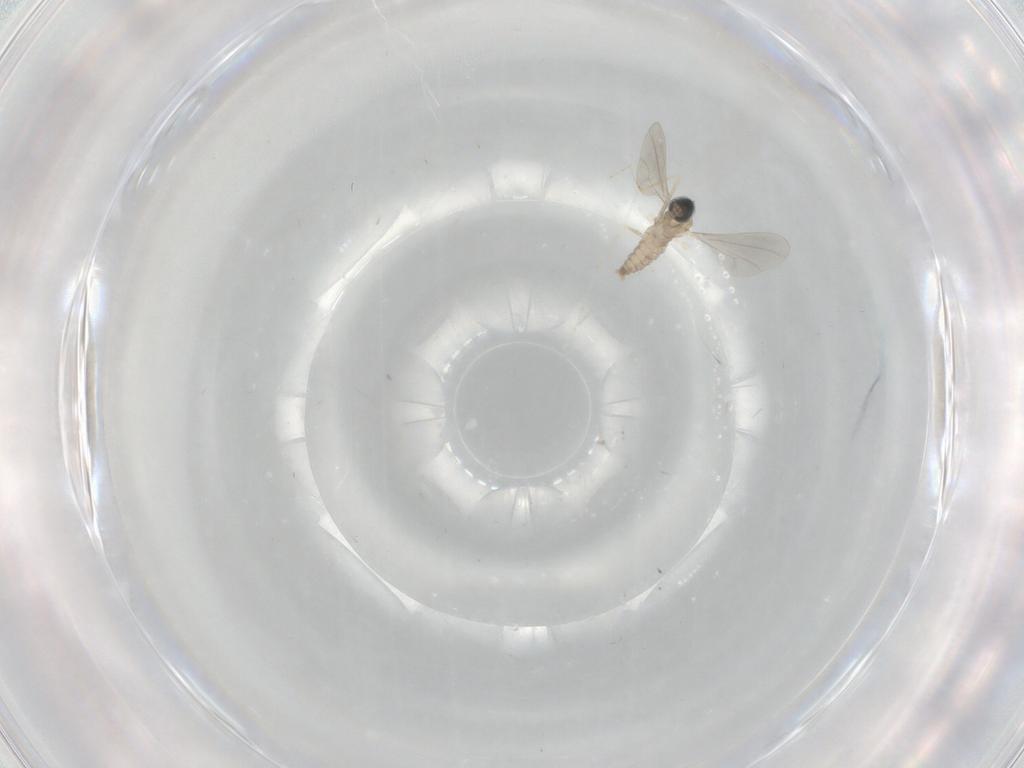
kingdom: Animalia
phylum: Arthropoda
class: Insecta
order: Diptera
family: Cecidomyiidae
